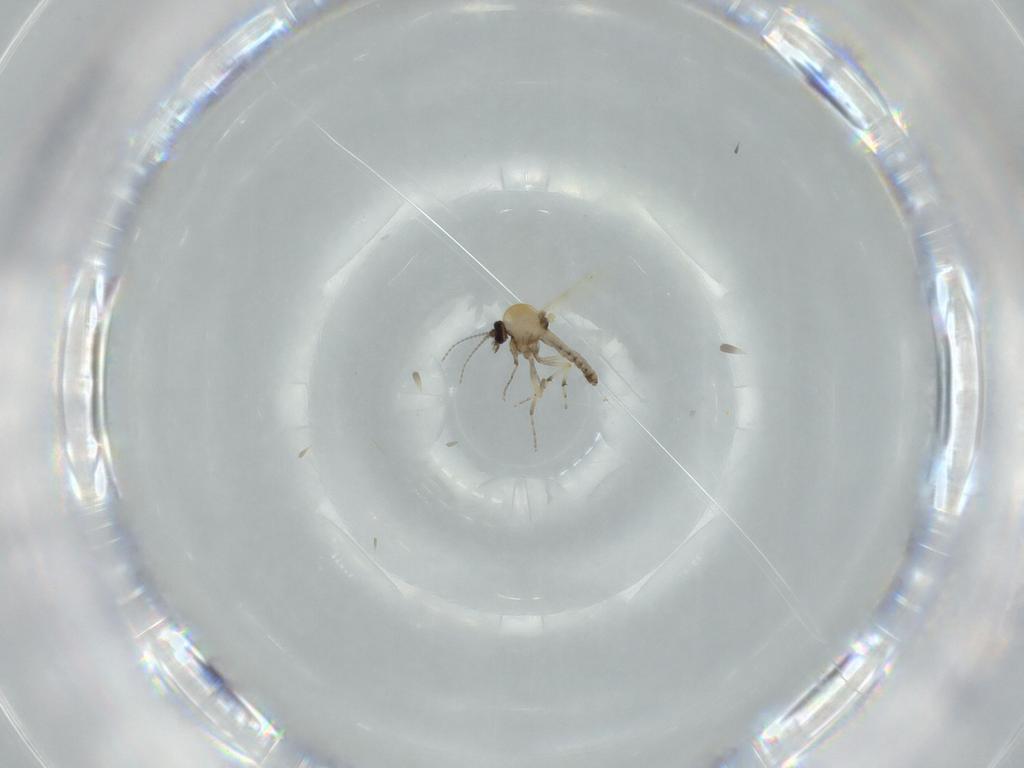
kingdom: Animalia
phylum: Arthropoda
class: Insecta
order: Diptera
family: Ceratopogonidae
